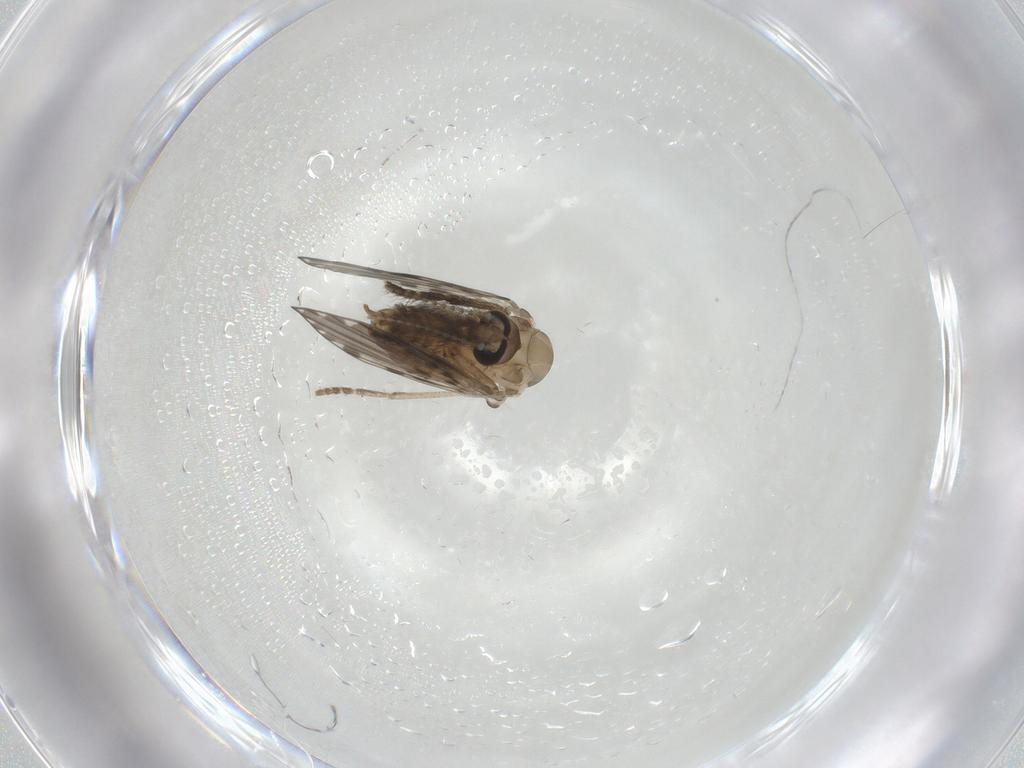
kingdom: Animalia
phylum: Arthropoda
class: Insecta
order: Diptera
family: Psychodidae
